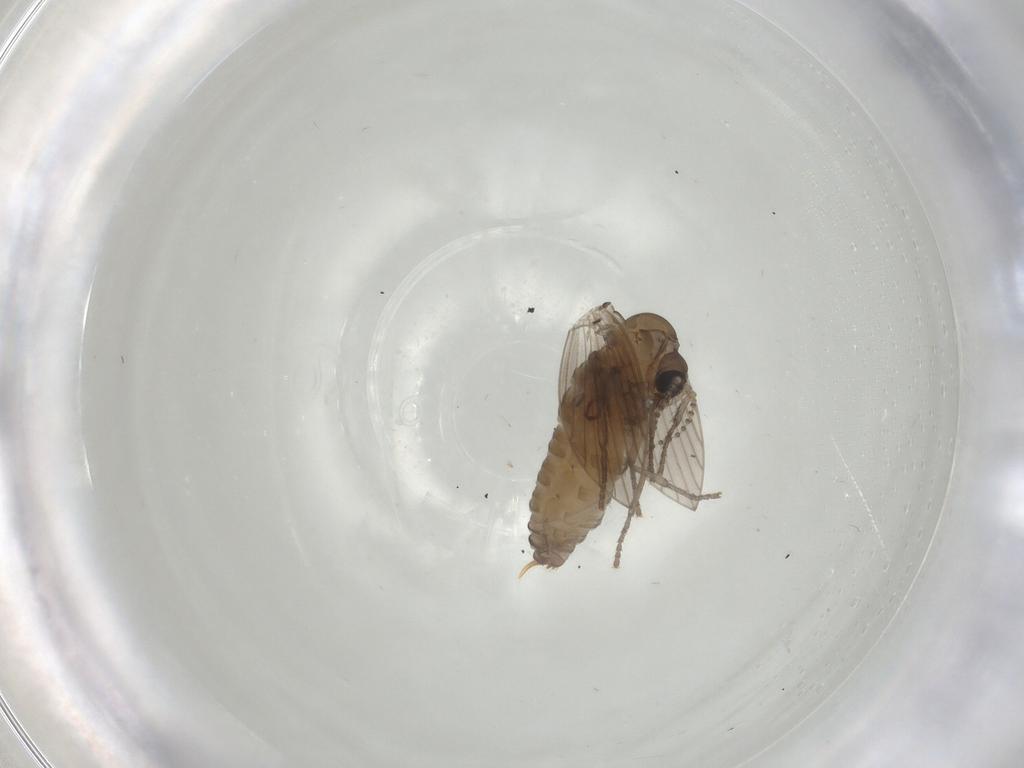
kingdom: Animalia
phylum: Arthropoda
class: Insecta
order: Diptera
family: Psychodidae
